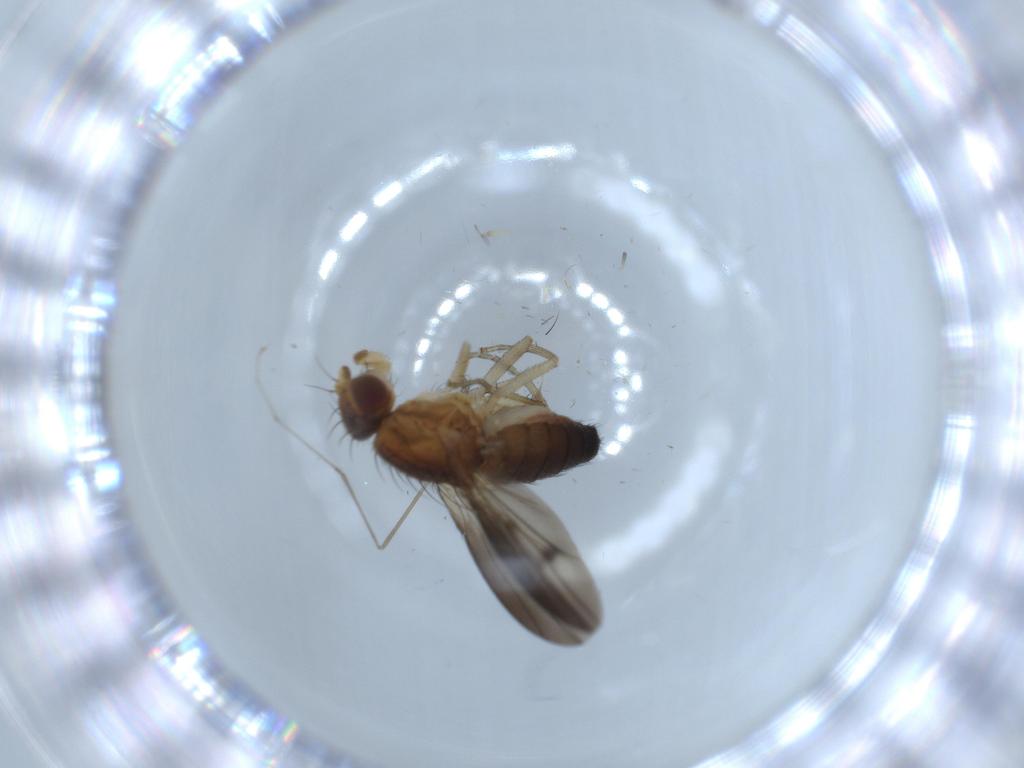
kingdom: Animalia
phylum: Arthropoda
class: Insecta
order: Diptera
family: Heleomyzidae
